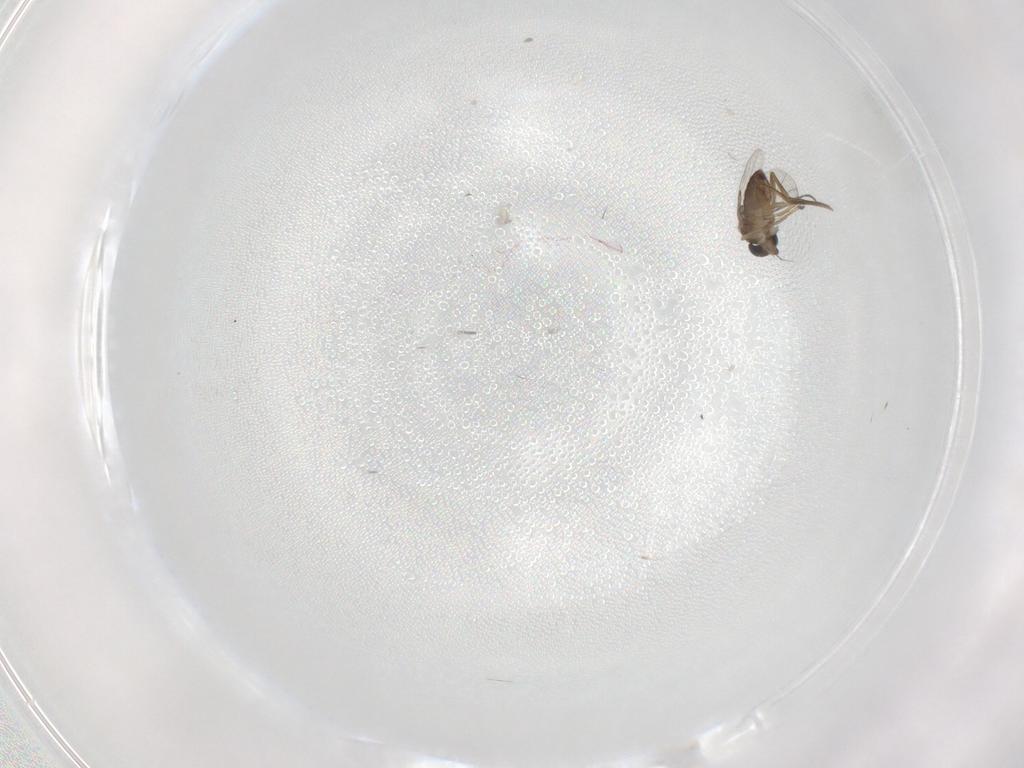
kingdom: Animalia
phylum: Arthropoda
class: Insecta
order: Diptera
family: Phoridae
